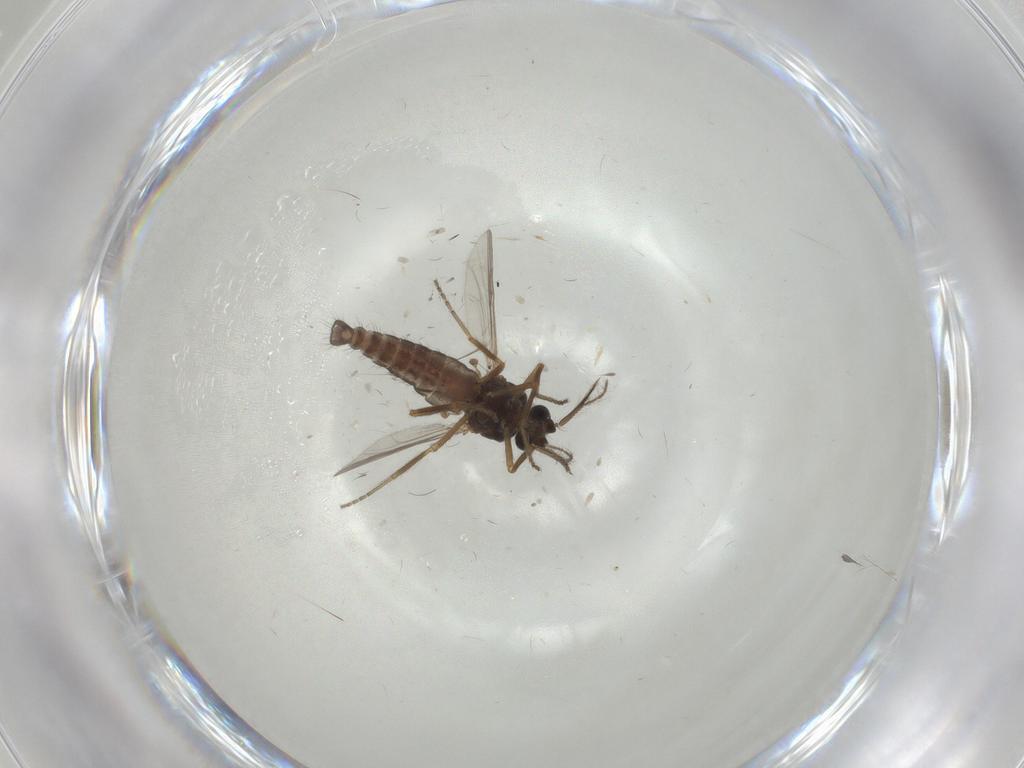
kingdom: Animalia
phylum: Arthropoda
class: Insecta
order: Diptera
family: Ceratopogonidae
